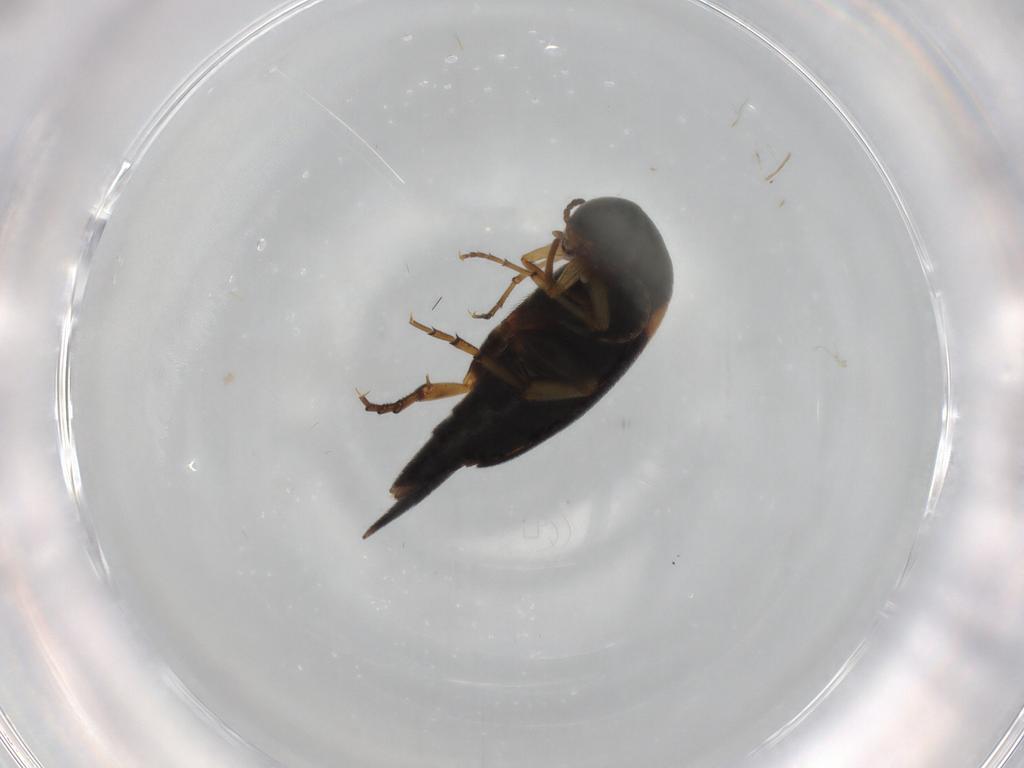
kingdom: Animalia
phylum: Arthropoda
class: Insecta
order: Coleoptera
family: Mordellidae
